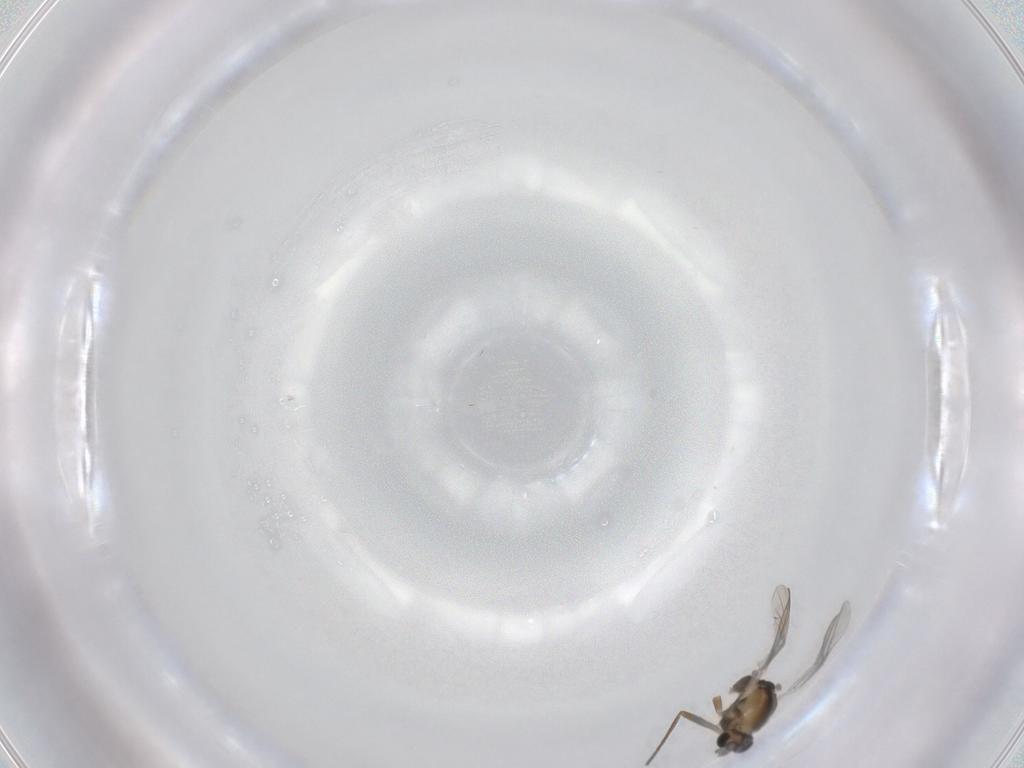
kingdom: Animalia
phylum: Arthropoda
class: Insecta
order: Diptera
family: Chironomidae
